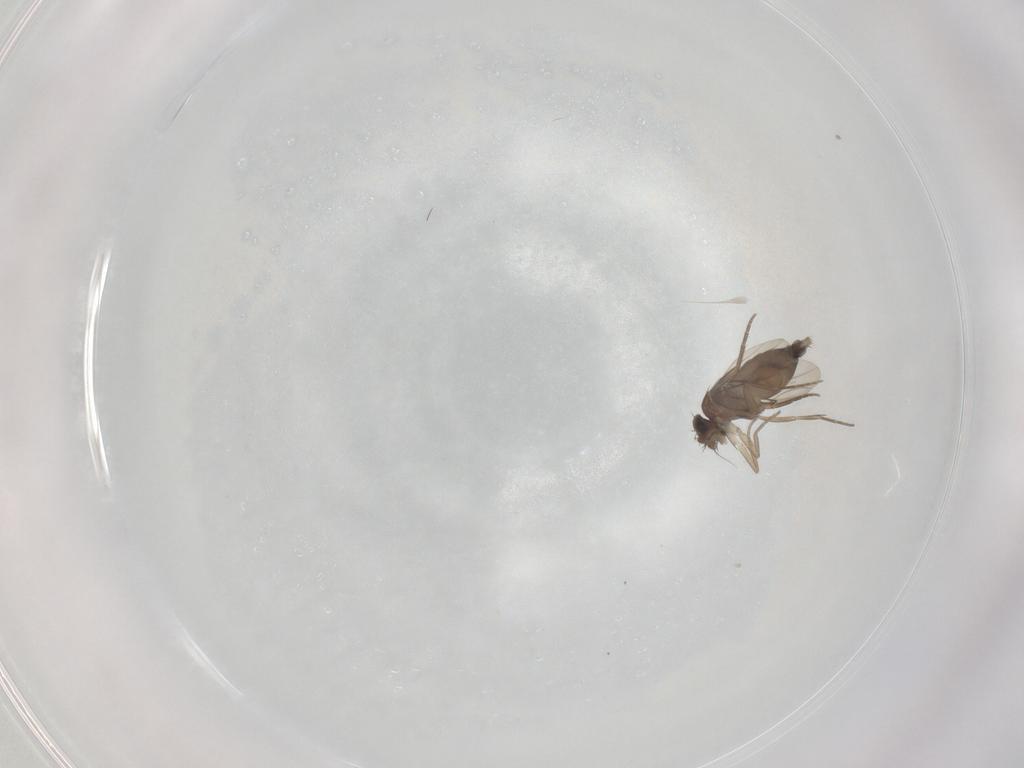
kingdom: Animalia
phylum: Arthropoda
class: Insecta
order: Diptera
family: Phoridae
